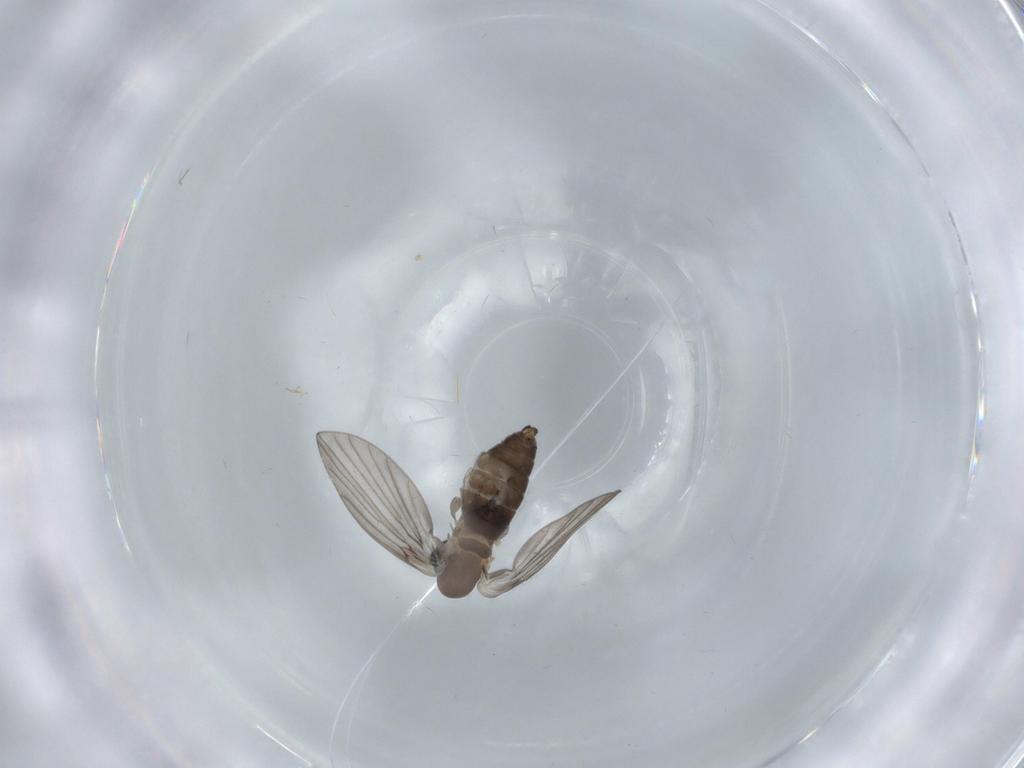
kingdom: Animalia
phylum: Arthropoda
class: Insecta
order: Diptera
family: Psychodidae
